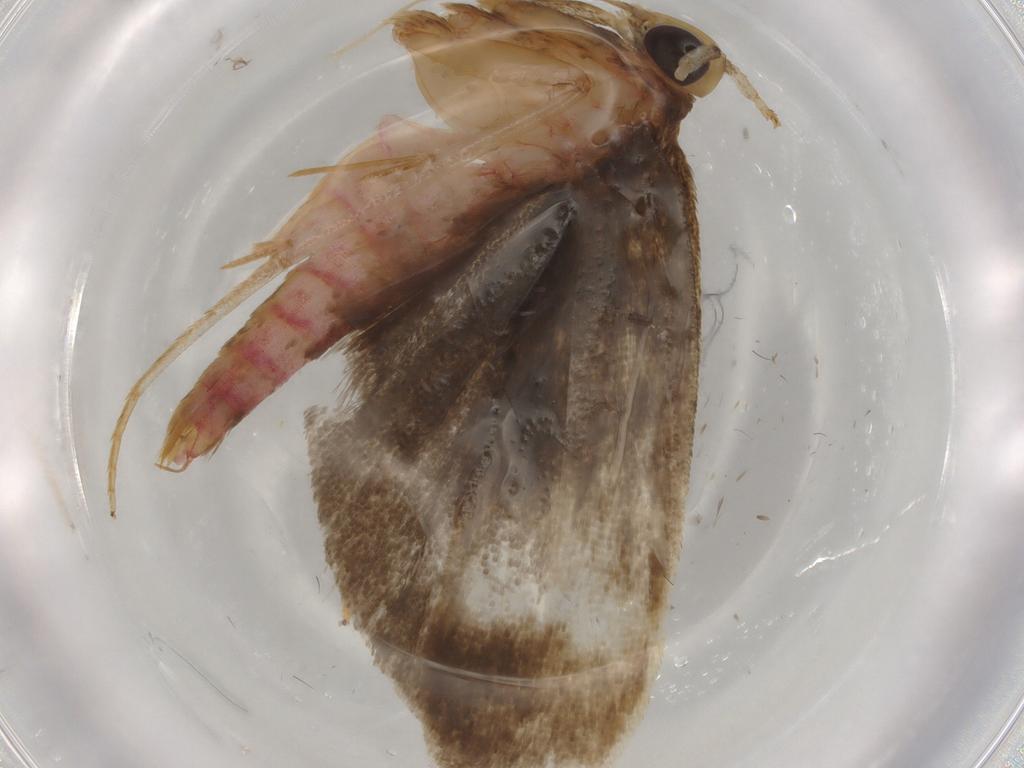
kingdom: Animalia
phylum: Arthropoda
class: Insecta
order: Lepidoptera
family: Autostichidae
